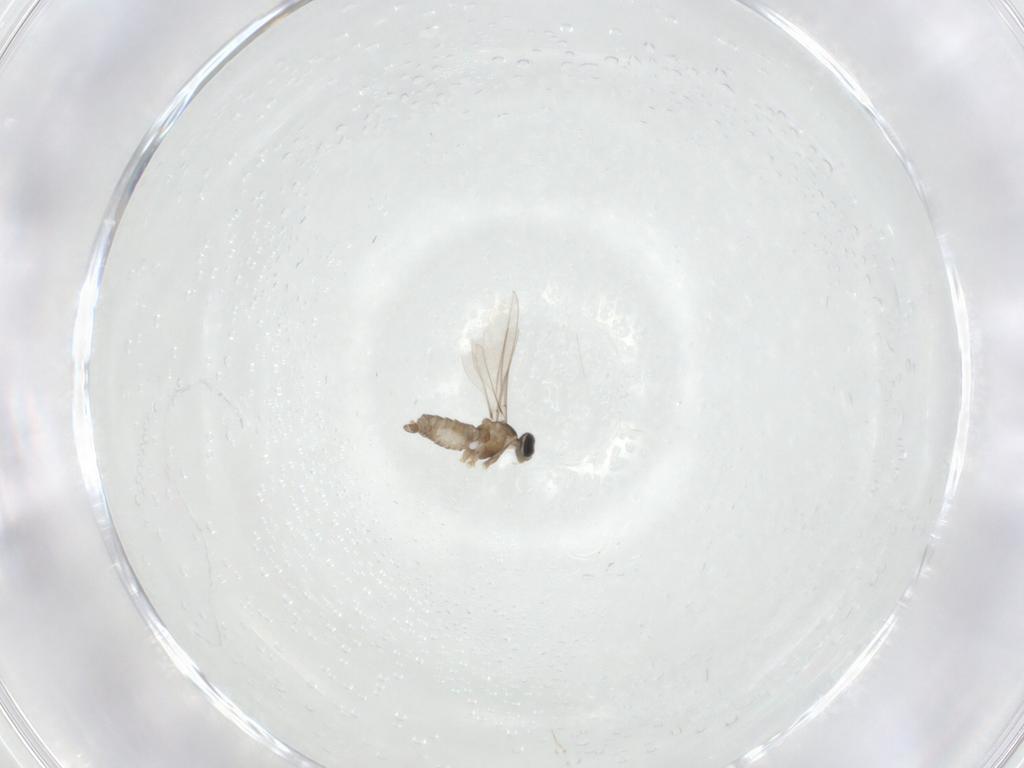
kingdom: Animalia
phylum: Arthropoda
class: Insecta
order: Diptera
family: Cecidomyiidae
